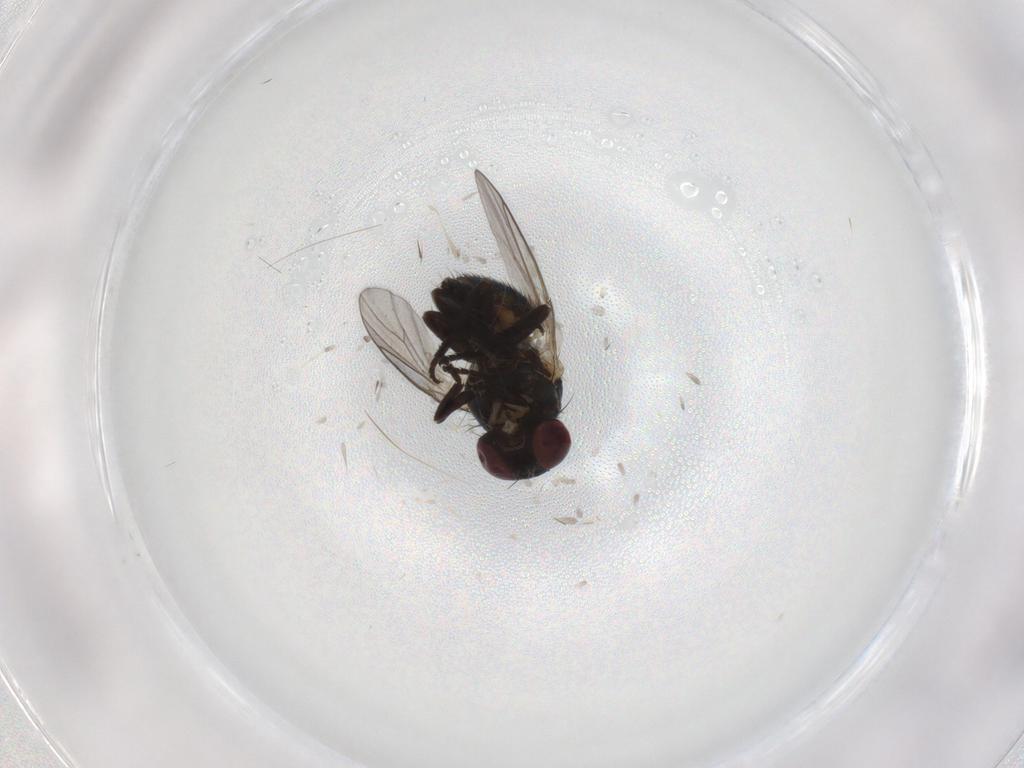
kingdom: Animalia
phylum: Arthropoda
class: Insecta
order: Diptera
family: Agromyzidae
